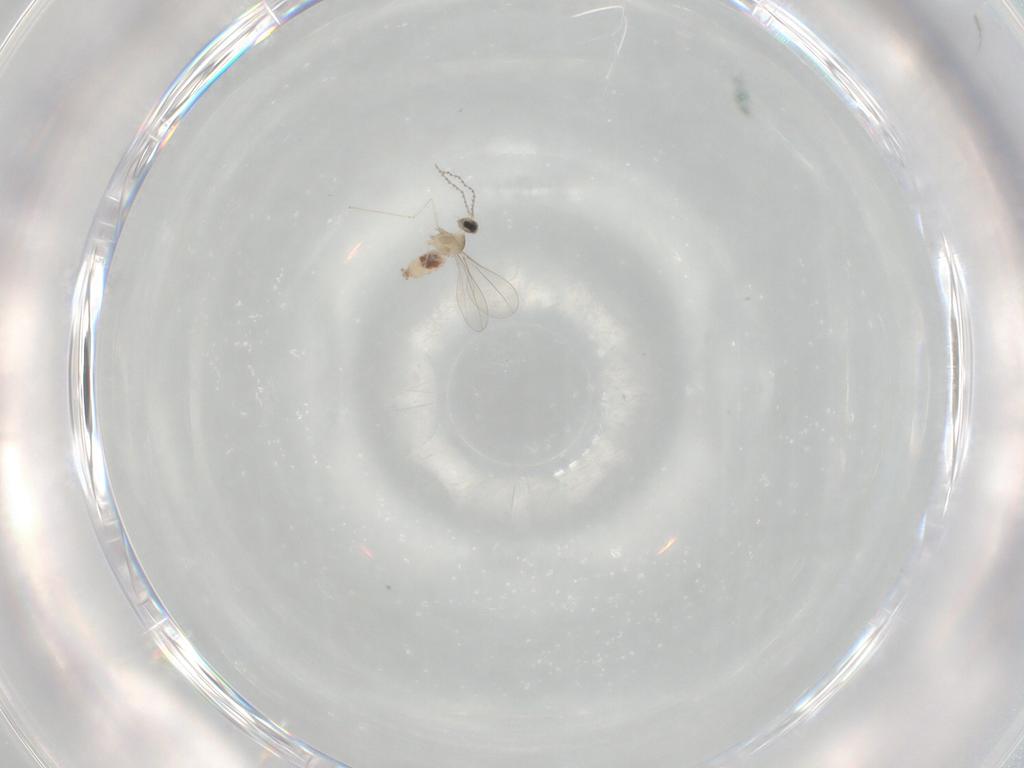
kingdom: Animalia
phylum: Arthropoda
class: Insecta
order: Diptera
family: Cecidomyiidae
